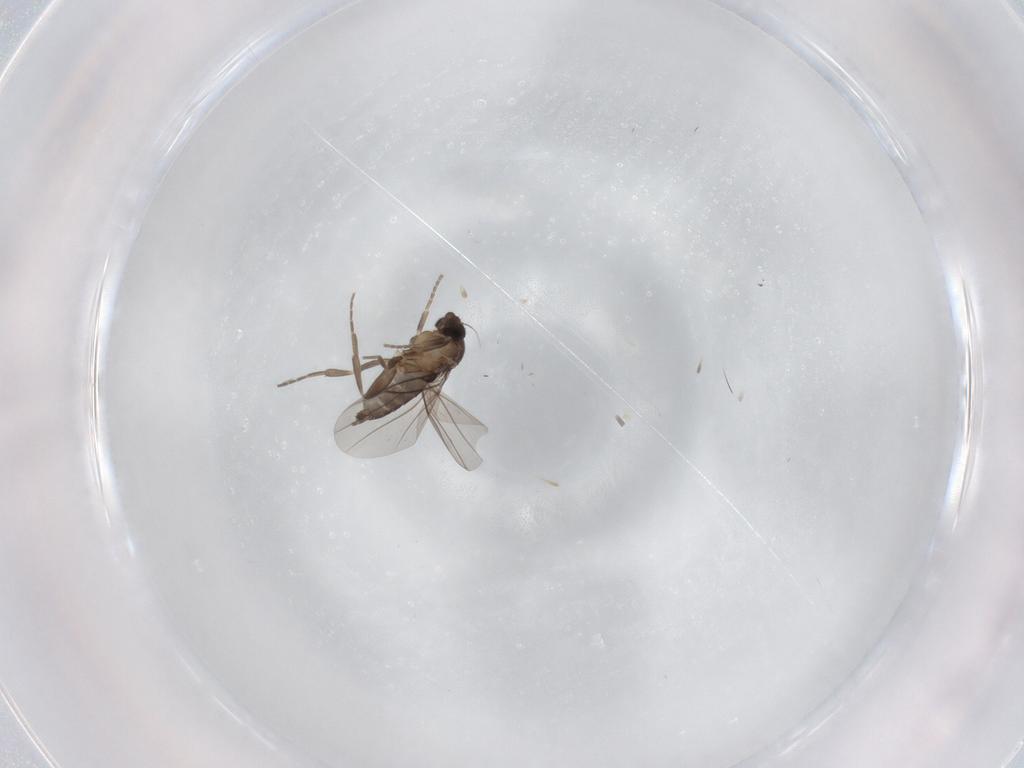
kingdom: Animalia
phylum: Arthropoda
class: Insecta
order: Diptera
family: Phoridae
